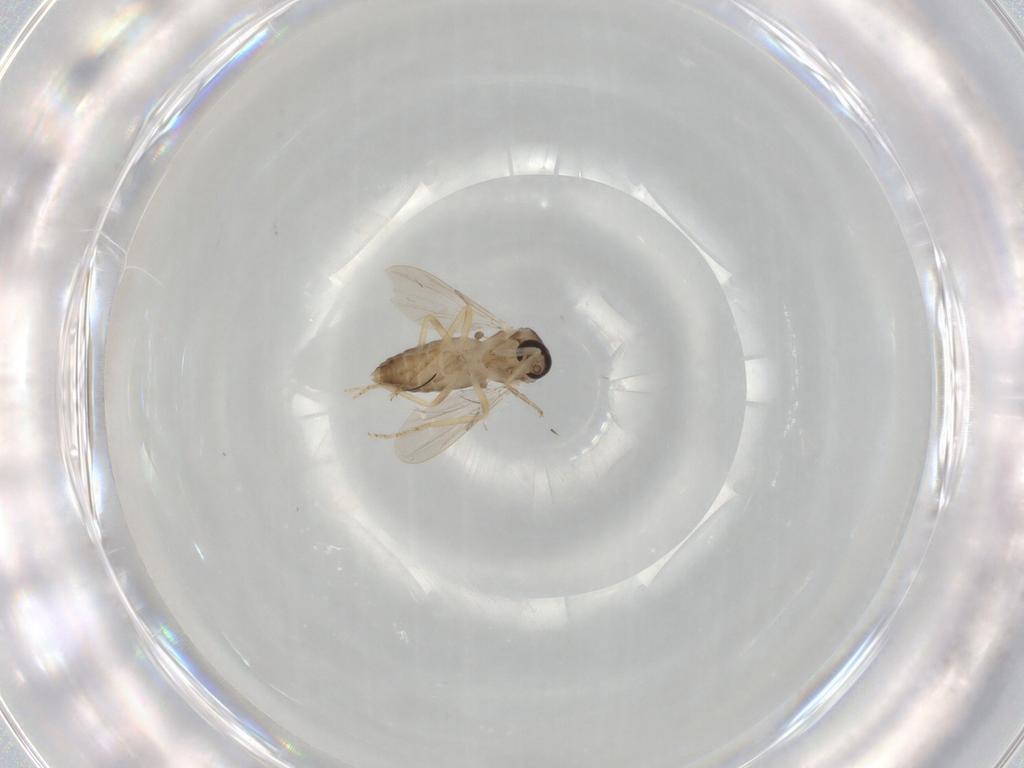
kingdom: Animalia
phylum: Arthropoda
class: Insecta
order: Diptera
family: Ceratopogonidae
